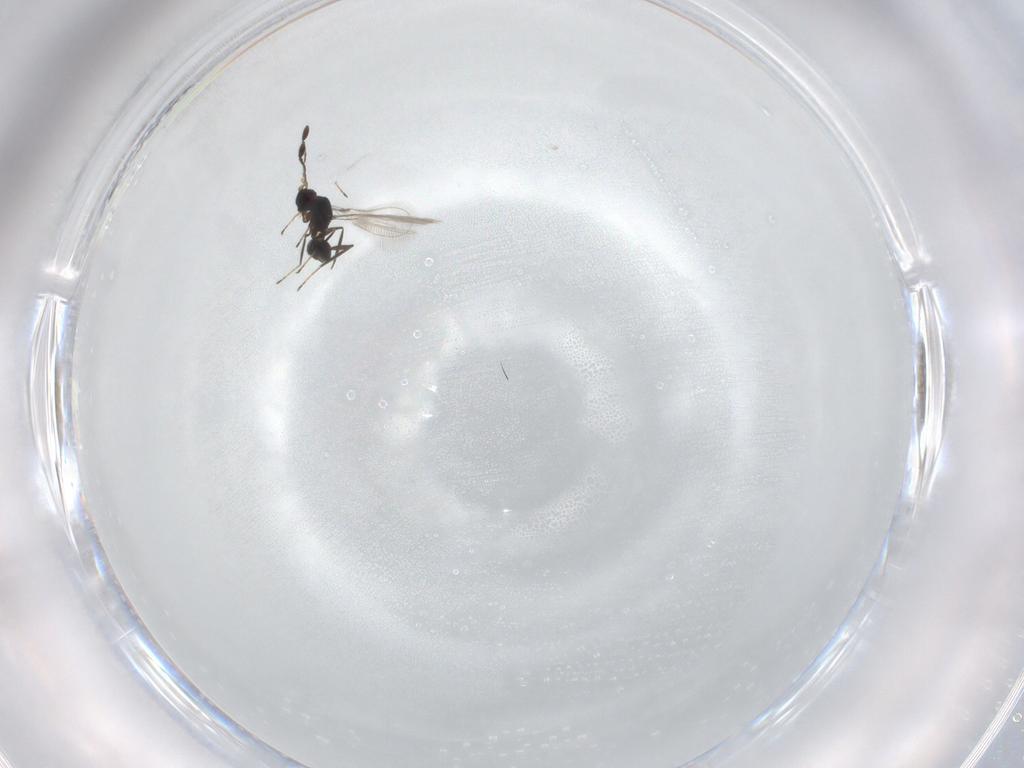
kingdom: Animalia
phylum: Arthropoda
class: Insecta
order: Hymenoptera
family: Mymaridae
